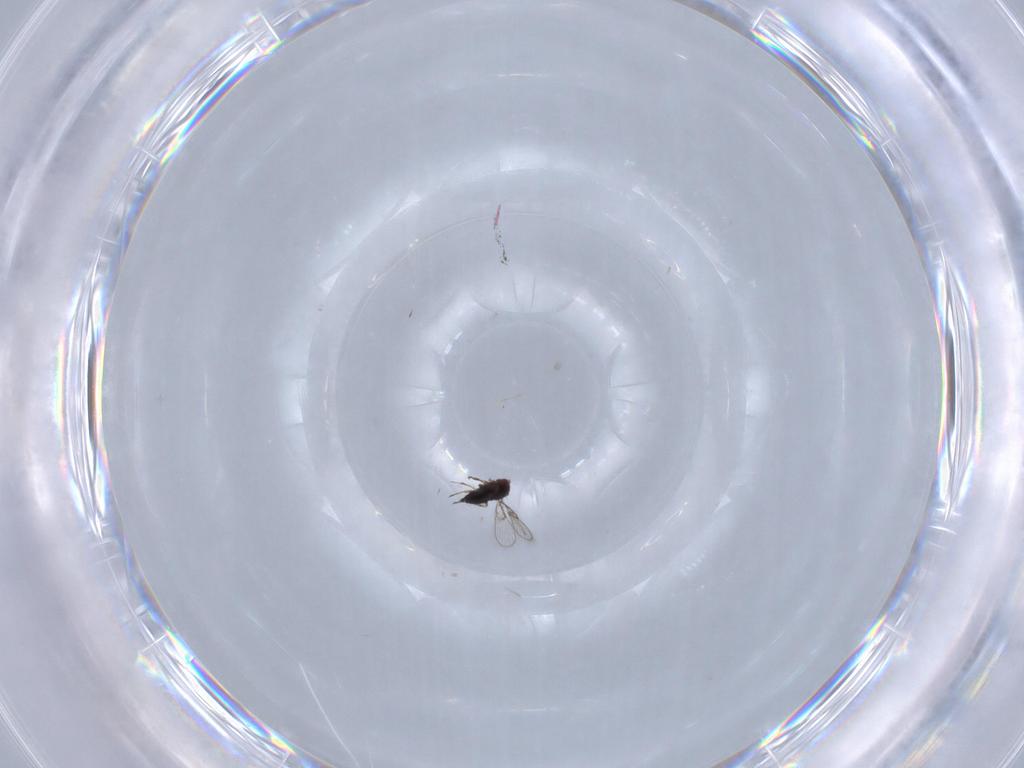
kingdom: Animalia
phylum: Arthropoda
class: Insecta
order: Hymenoptera
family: Trichogrammatidae
